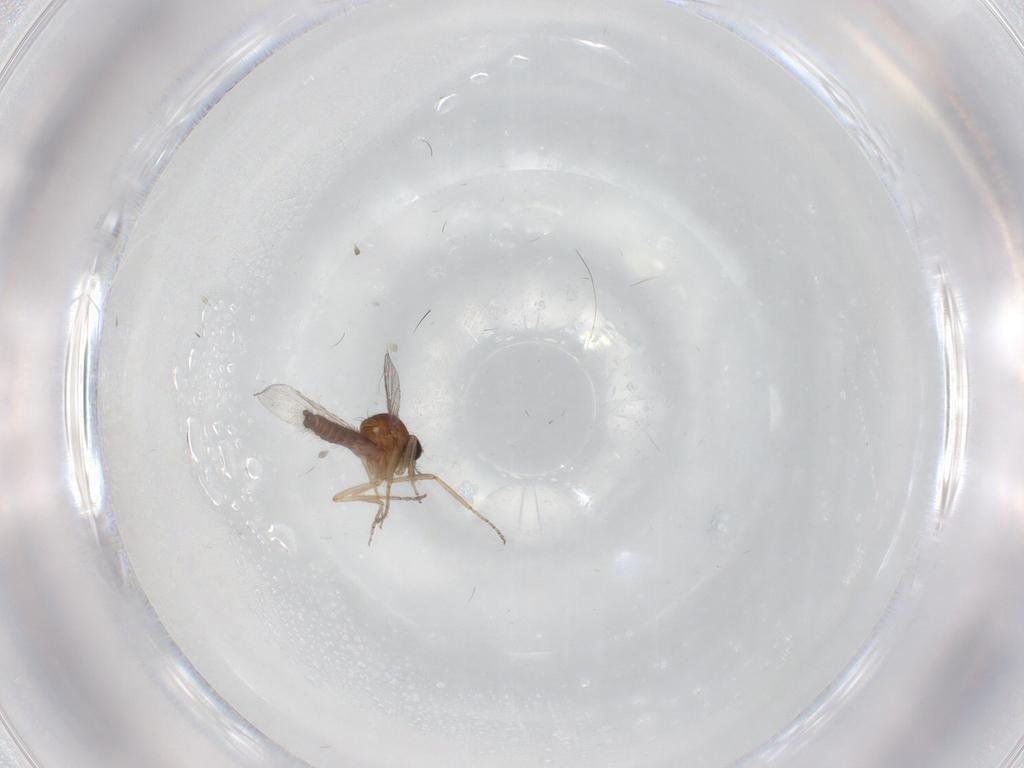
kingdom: Animalia
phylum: Arthropoda
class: Insecta
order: Diptera
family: Ceratopogonidae
